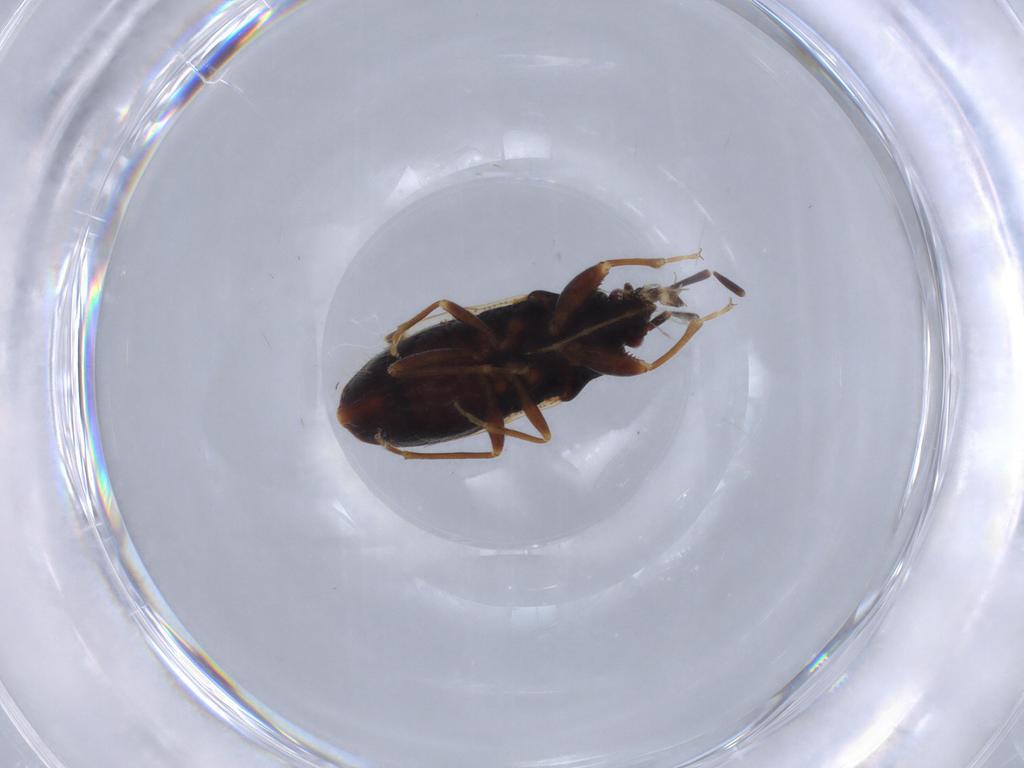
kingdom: Animalia
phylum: Arthropoda
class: Insecta
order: Hemiptera
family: Rhyparochromidae
